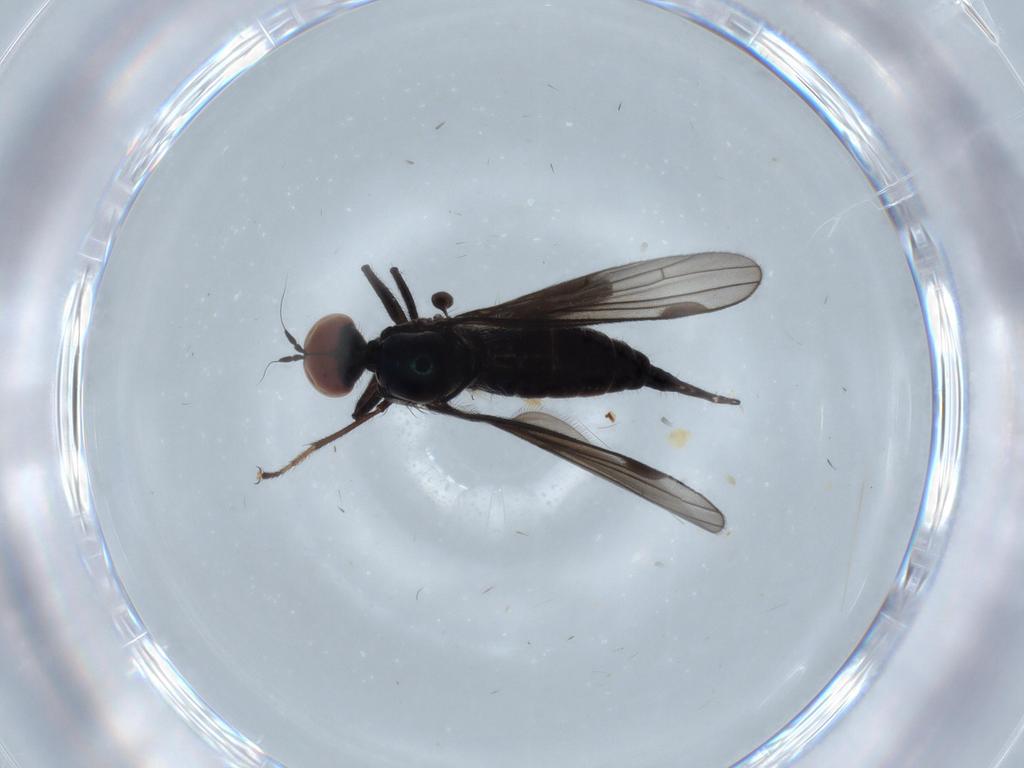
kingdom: Animalia
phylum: Arthropoda
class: Insecta
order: Diptera
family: Hybotidae
